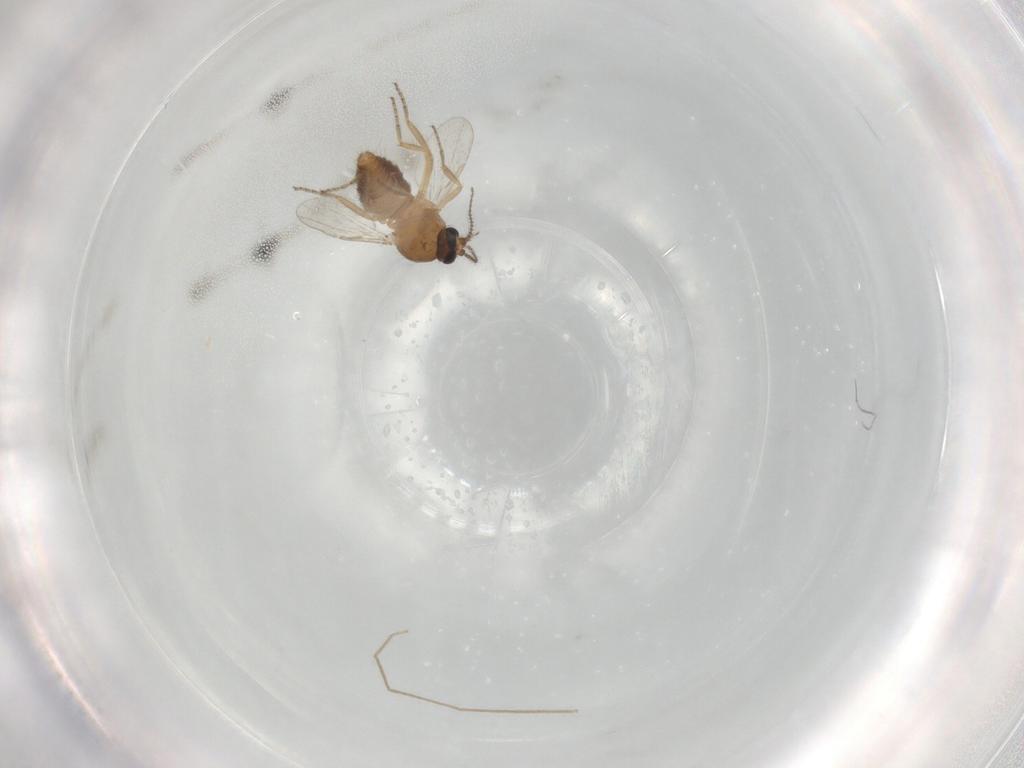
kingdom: Animalia
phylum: Arthropoda
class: Insecta
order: Diptera
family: Ceratopogonidae
